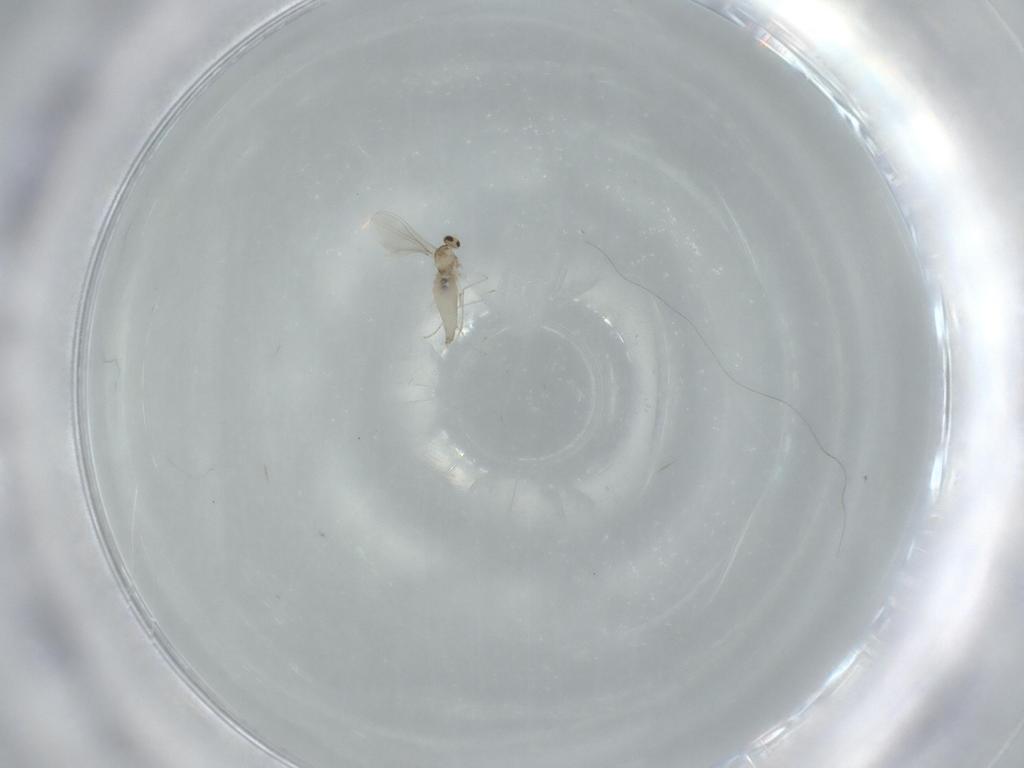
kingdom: Animalia
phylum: Arthropoda
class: Insecta
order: Diptera
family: Cecidomyiidae
